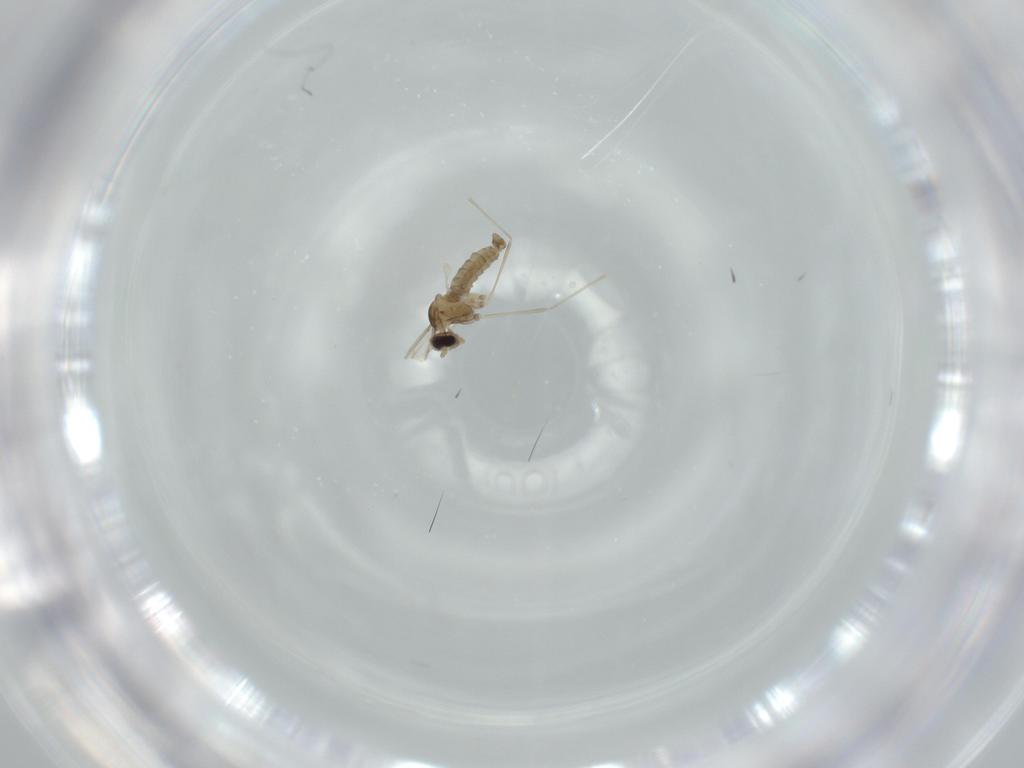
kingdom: Animalia
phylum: Arthropoda
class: Insecta
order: Diptera
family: Cecidomyiidae
